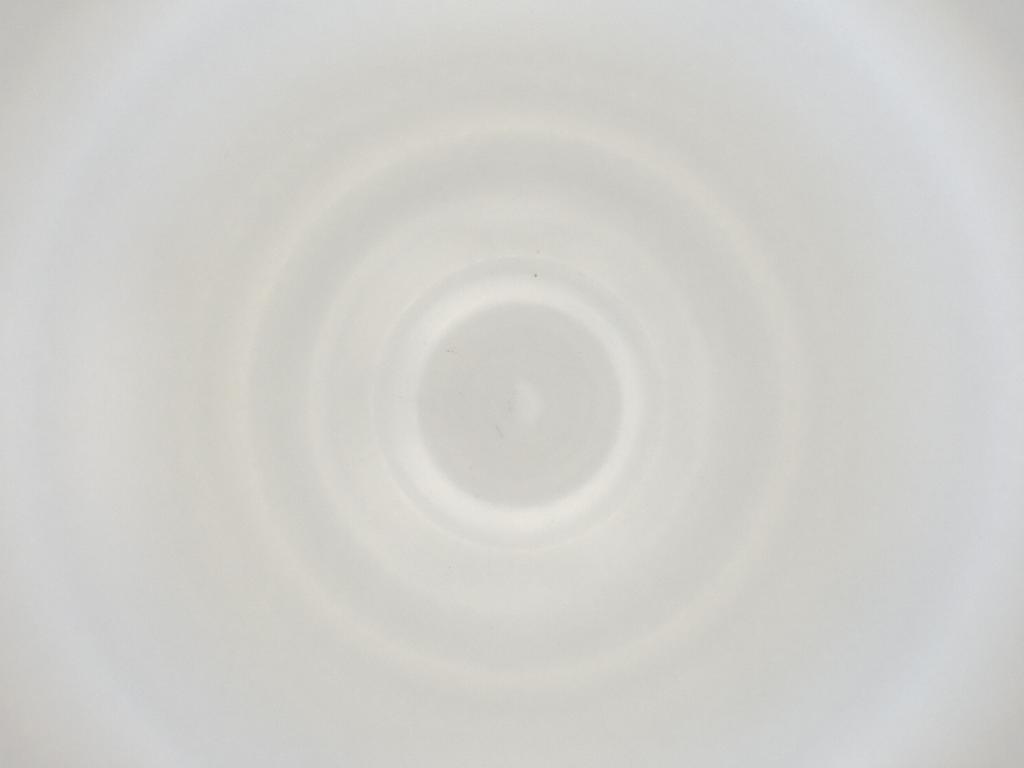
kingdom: Animalia
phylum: Arthropoda
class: Insecta
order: Diptera
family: Cecidomyiidae
